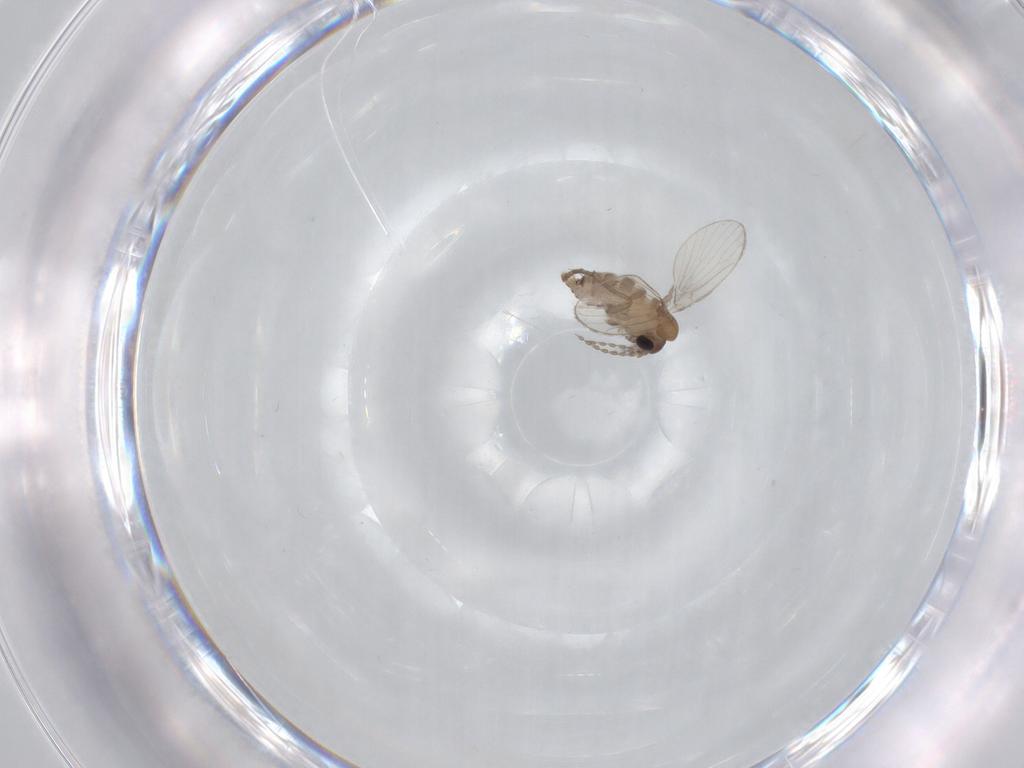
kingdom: Animalia
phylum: Arthropoda
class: Insecta
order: Diptera
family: Psychodidae
